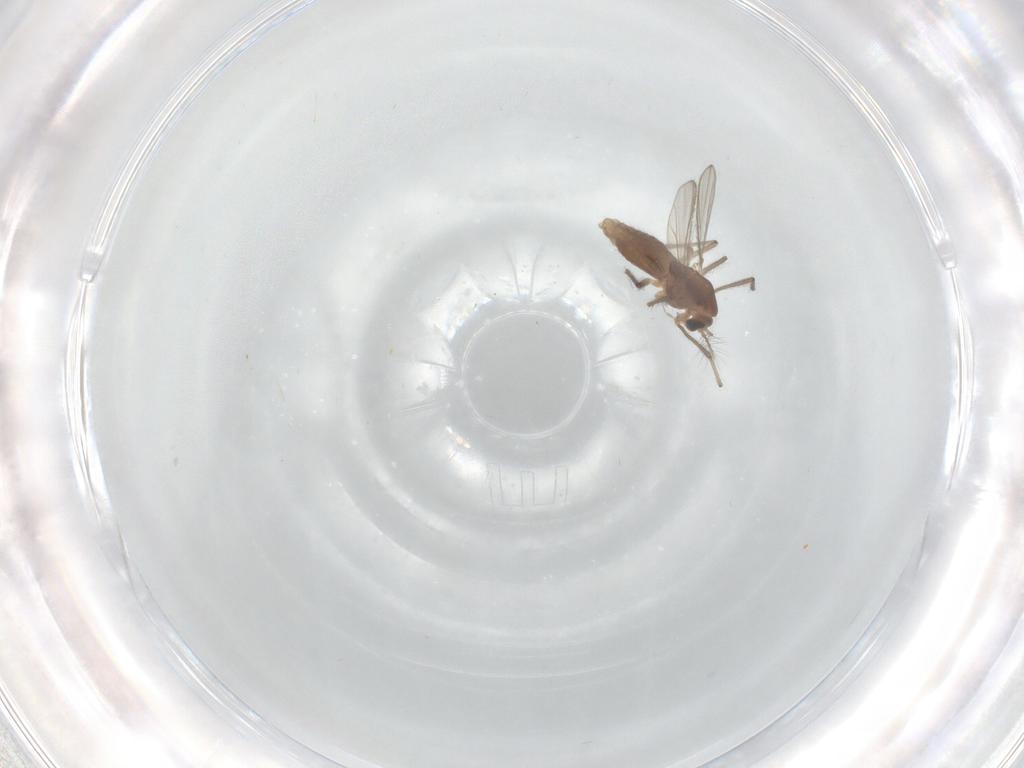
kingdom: Animalia
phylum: Arthropoda
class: Insecta
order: Diptera
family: Chironomidae
